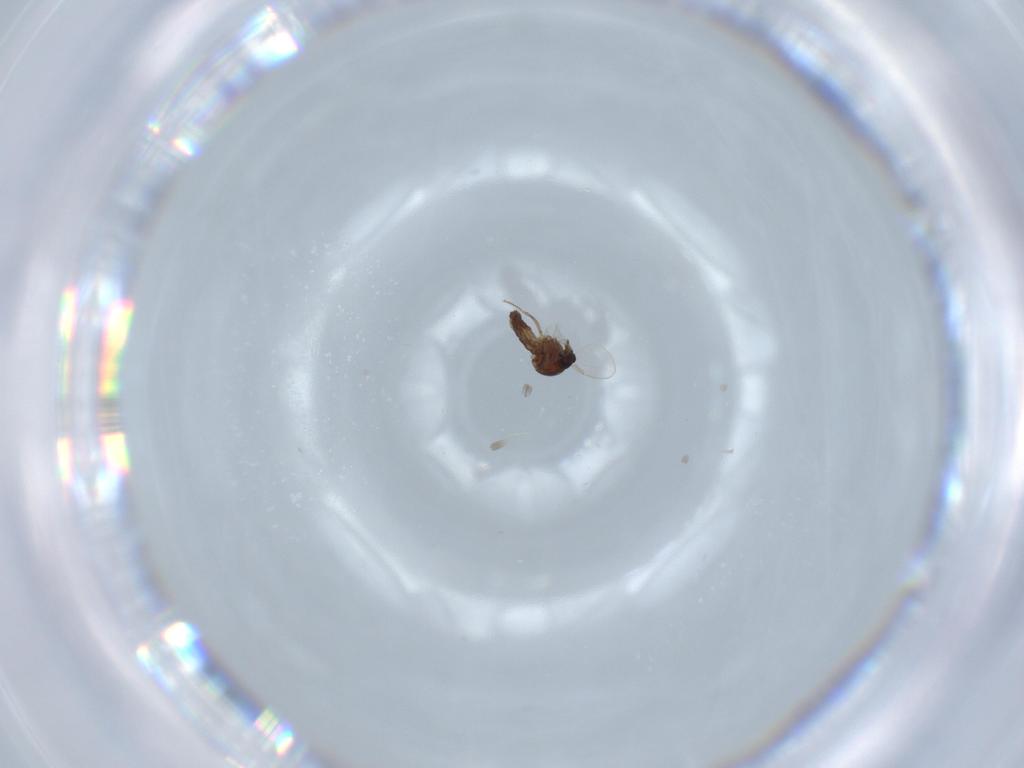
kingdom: Animalia
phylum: Arthropoda
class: Insecta
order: Diptera
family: Ceratopogonidae
